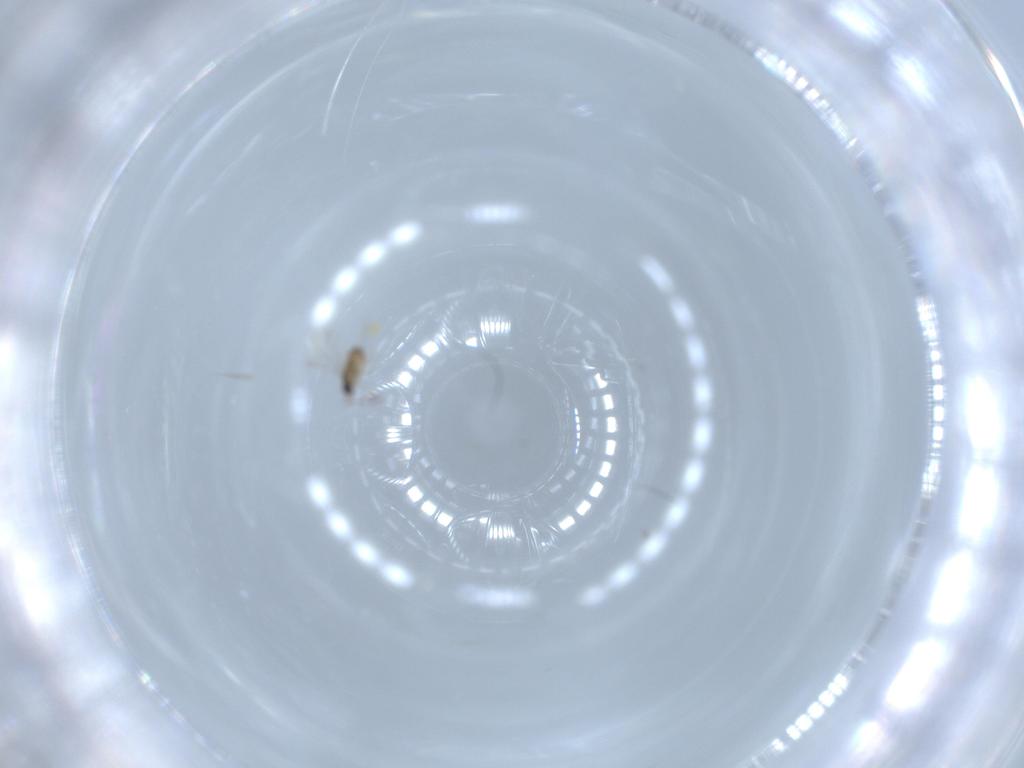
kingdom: Animalia
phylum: Arthropoda
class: Insecta
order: Hymenoptera
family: Mymaridae
